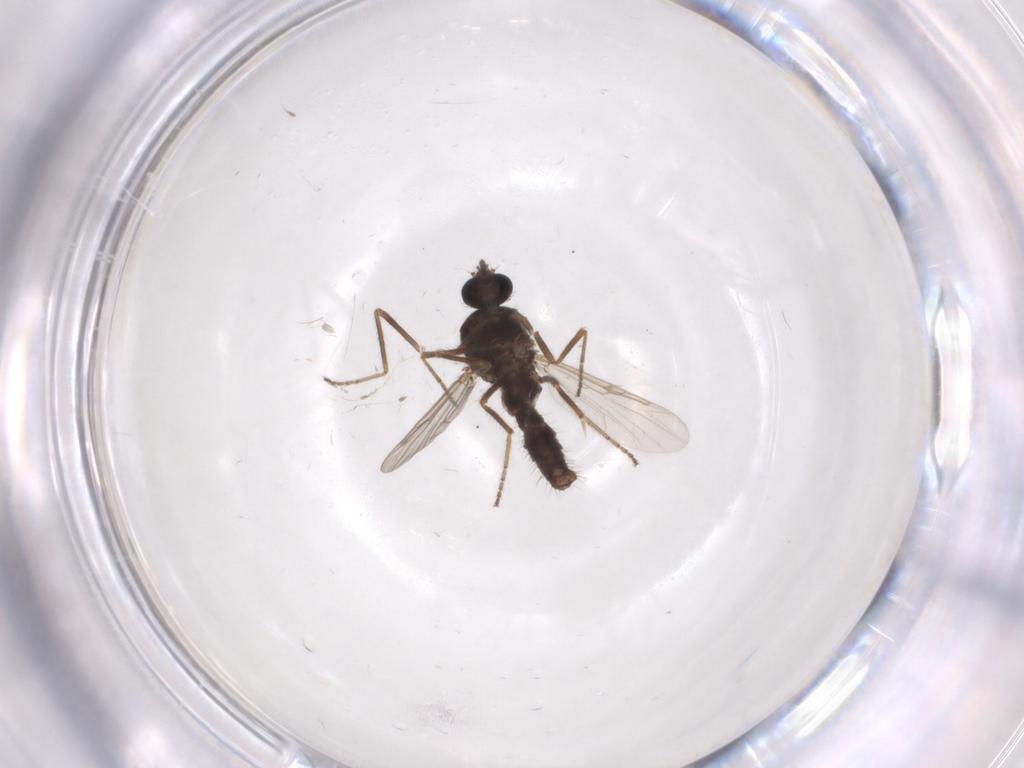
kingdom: Animalia
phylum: Arthropoda
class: Insecta
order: Diptera
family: Ceratopogonidae
